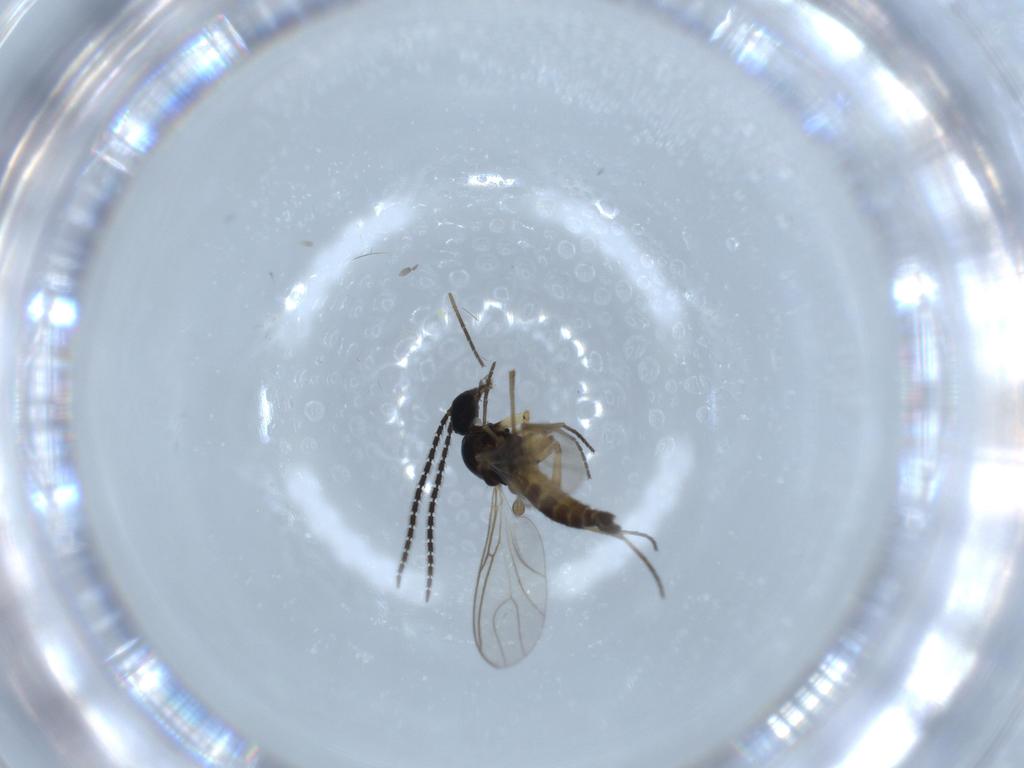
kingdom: Animalia
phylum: Arthropoda
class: Insecta
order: Diptera
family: Sciaridae
